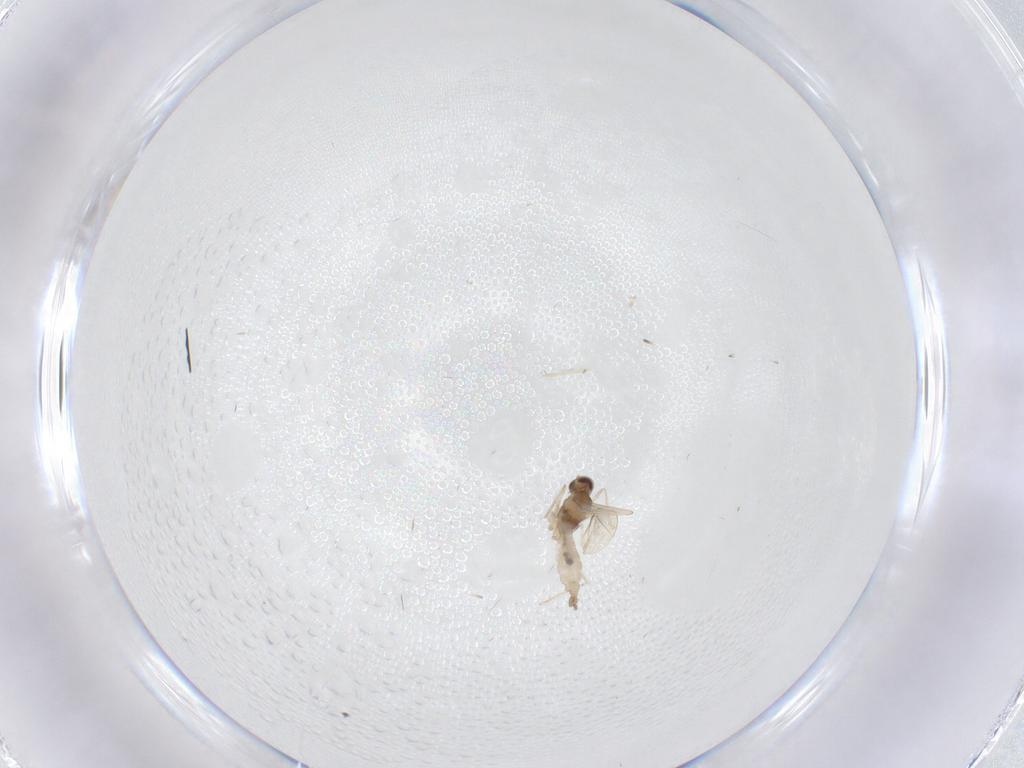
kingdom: Animalia
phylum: Arthropoda
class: Insecta
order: Diptera
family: Cecidomyiidae
